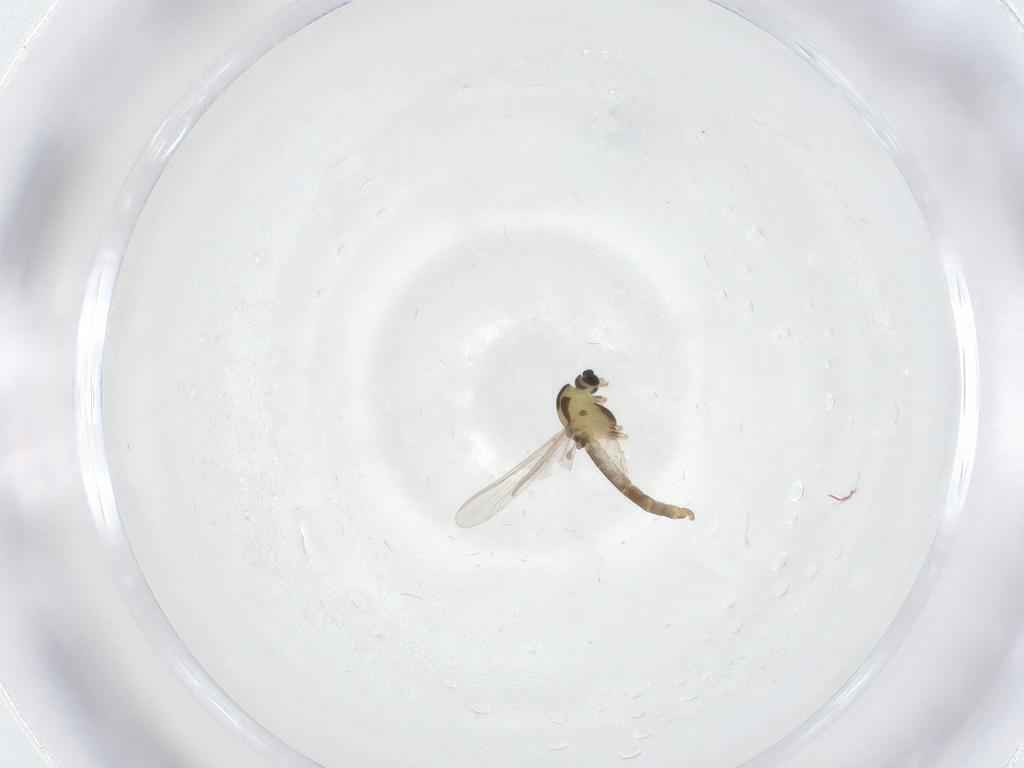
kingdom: Animalia
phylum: Arthropoda
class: Insecta
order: Diptera
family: Chironomidae
